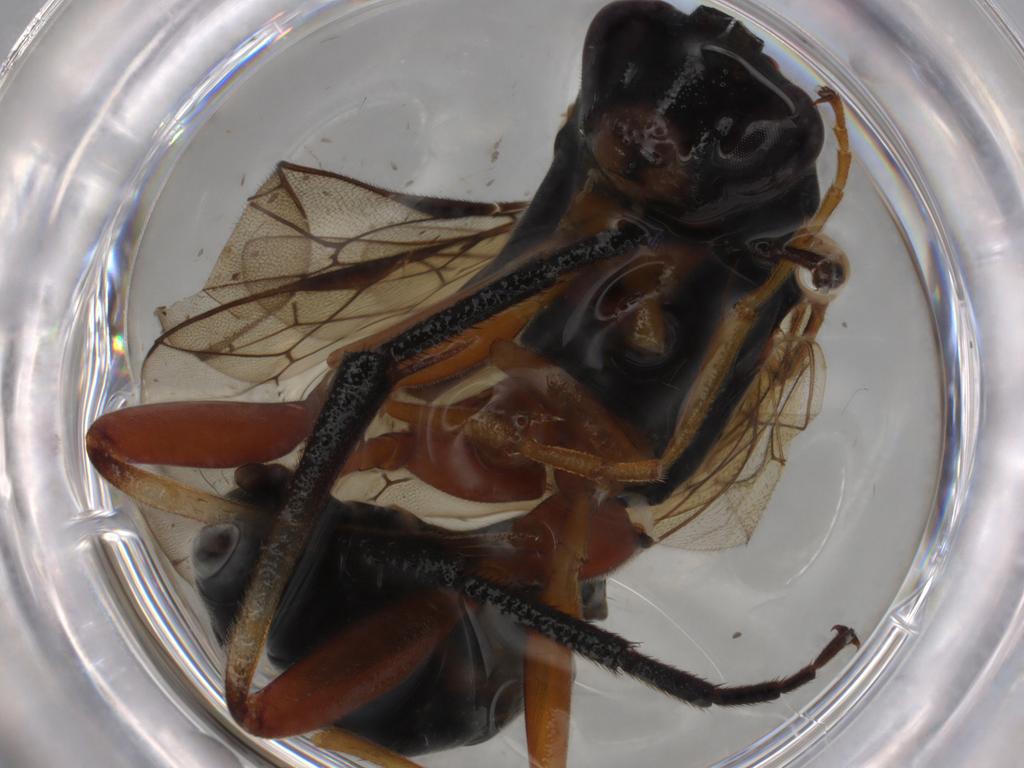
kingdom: Animalia
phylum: Arthropoda
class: Insecta
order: Hymenoptera
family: Ichneumonidae
